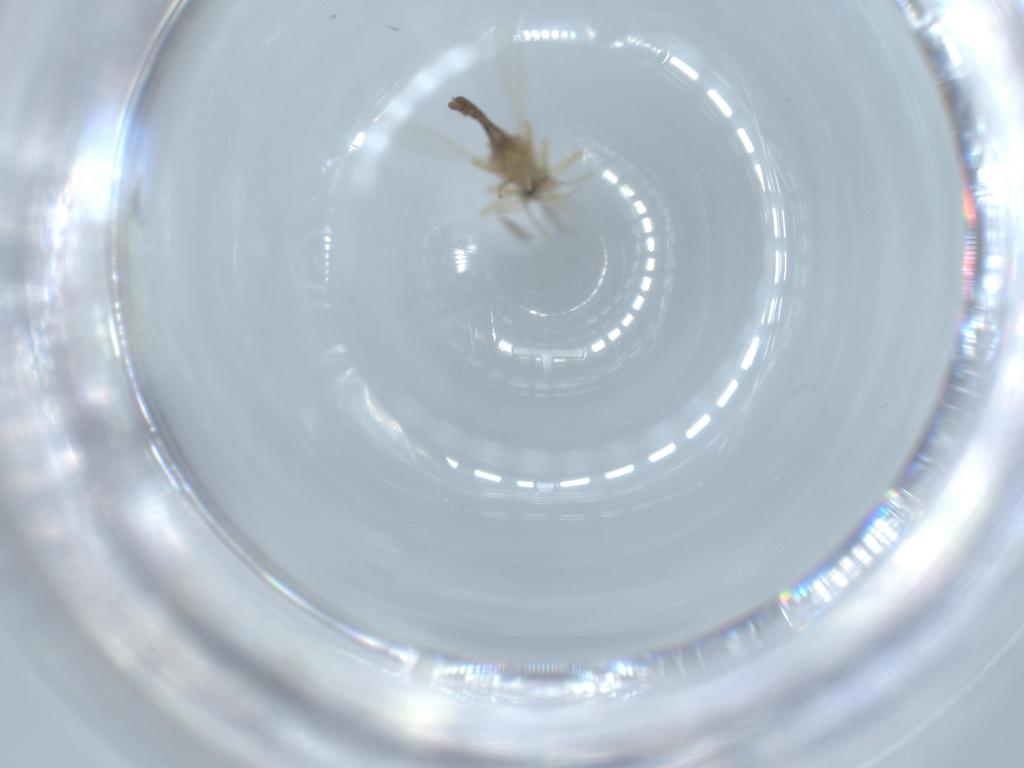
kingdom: Animalia
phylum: Arthropoda
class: Insecta
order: Diptera
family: Ceratopogonidae
